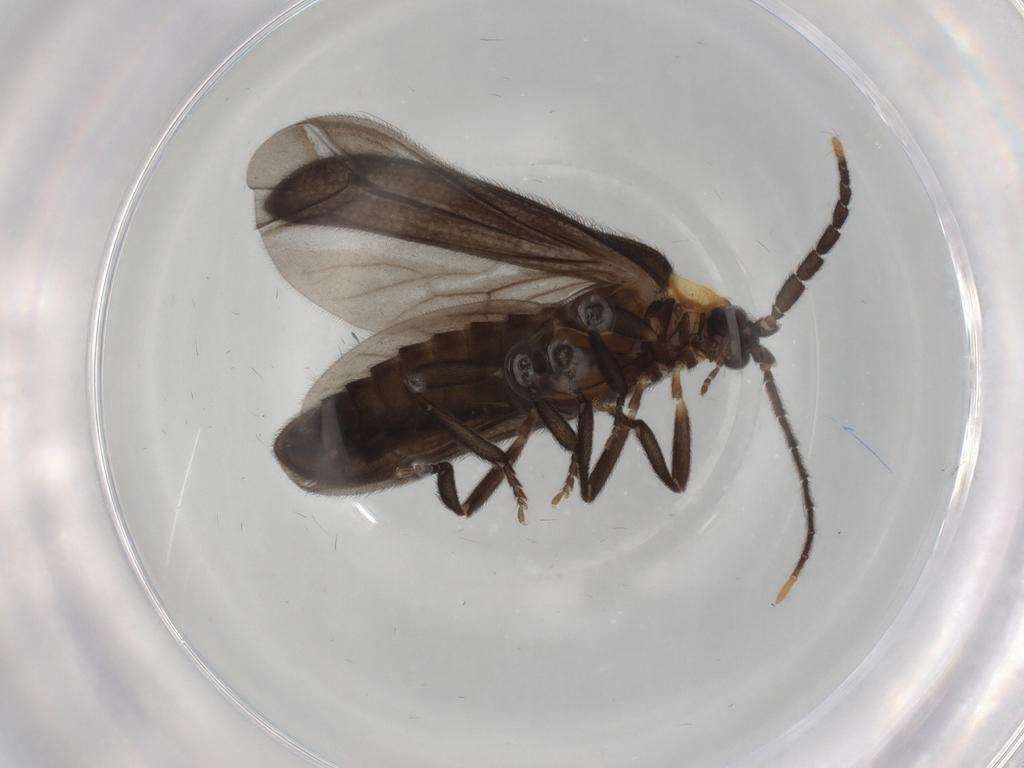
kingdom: Animalia
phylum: Arthropoda
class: Insecta
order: Coleoptera
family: Lycidae
